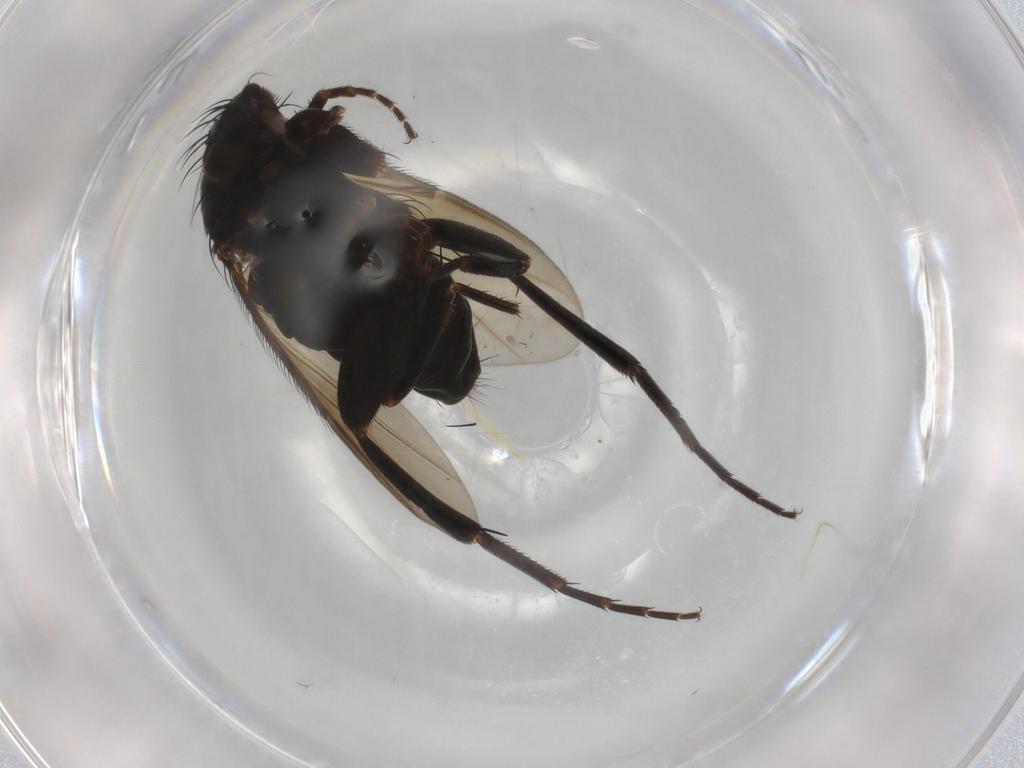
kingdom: Animalia
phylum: Arthropoda
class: Insecta
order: Diptera
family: Phoridae
